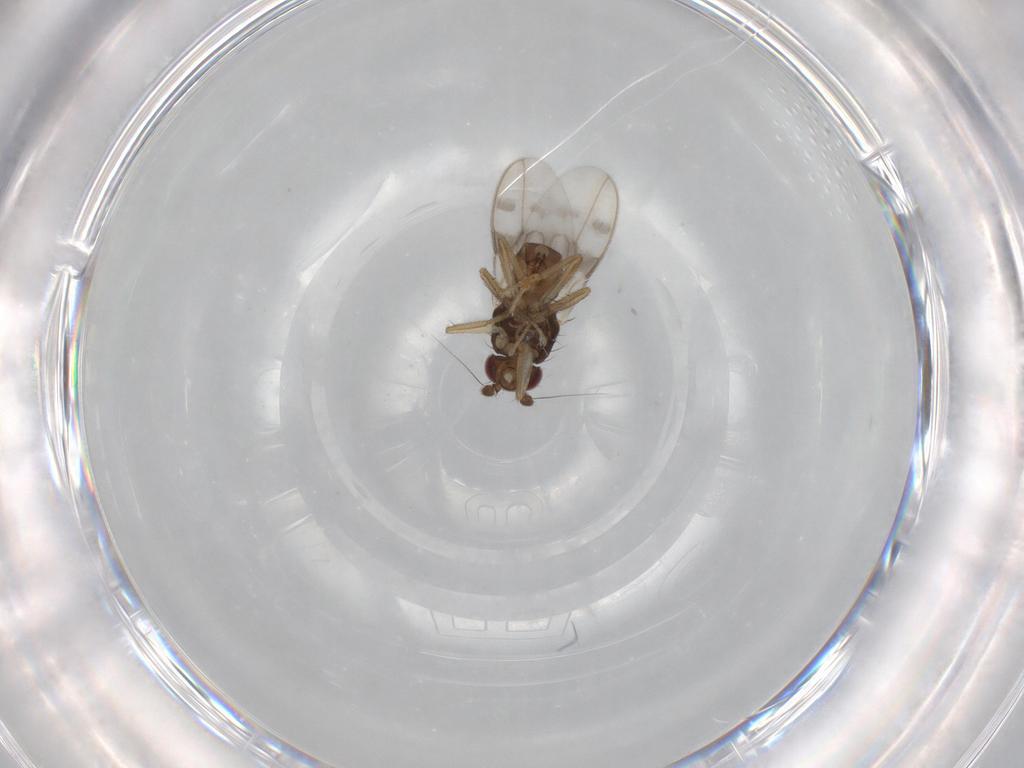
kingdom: Animalia
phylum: Arthropoda
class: Insecta
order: Diptera
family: Sphaeroceridae
